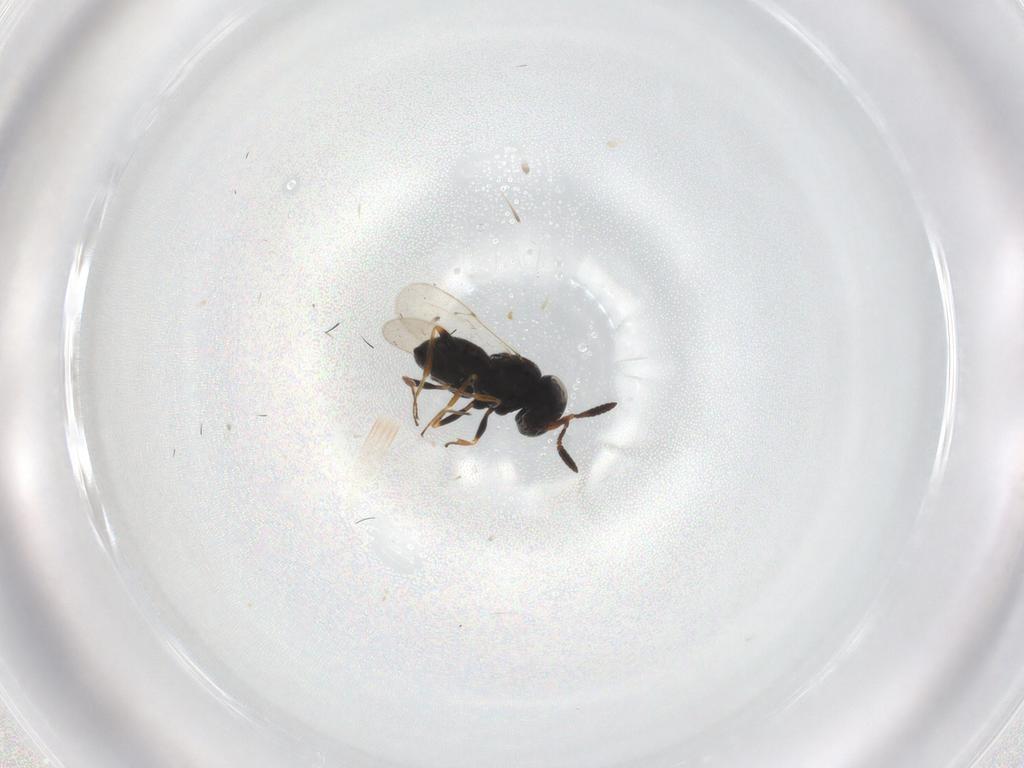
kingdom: Animalia
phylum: Arthropoda
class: Insecta
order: Coleoptera
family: Curculionidae
